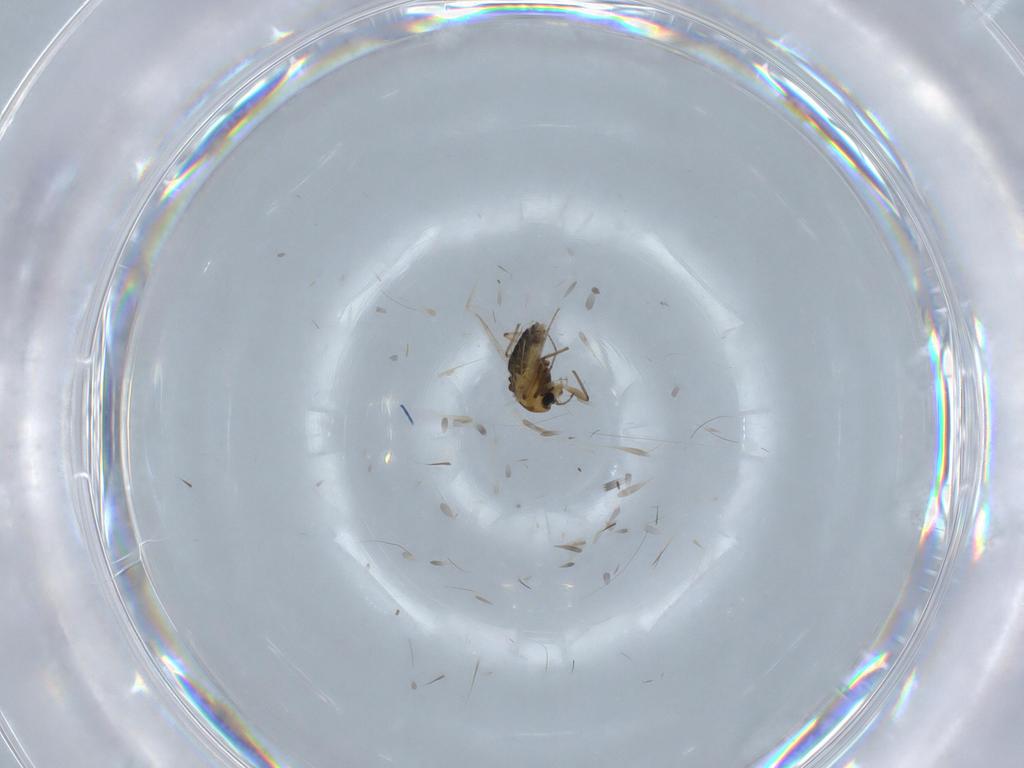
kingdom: Animalia
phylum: Arthropoda
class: Insecta
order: Diptera
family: Chironomidae
